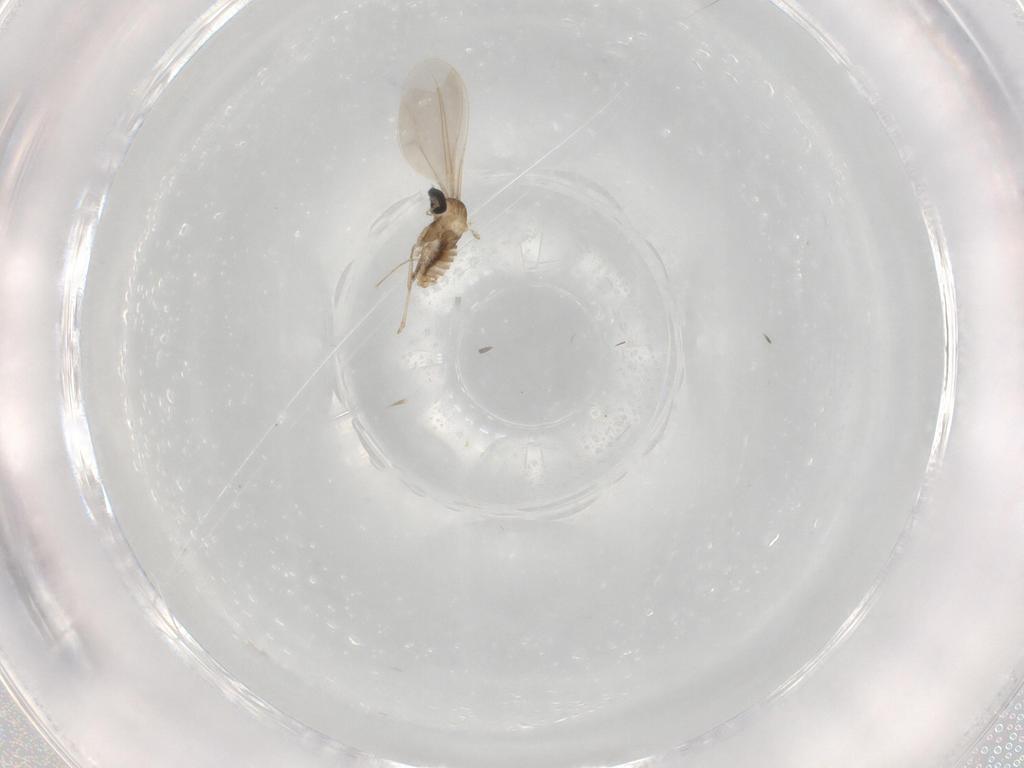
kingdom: Animalia
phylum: Arthropoda
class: Insecta
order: Diptera
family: Cecidomyiidae
